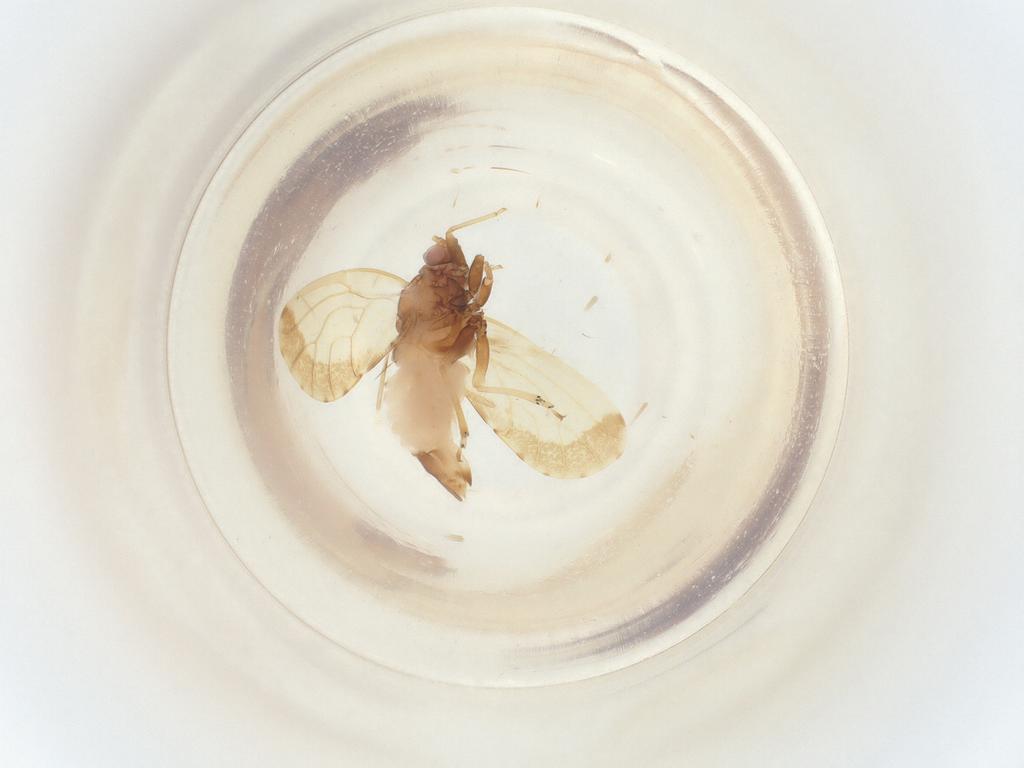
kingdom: Animalia
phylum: Arthropoda
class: Insecta
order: Hemiptera
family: Psyllidae
